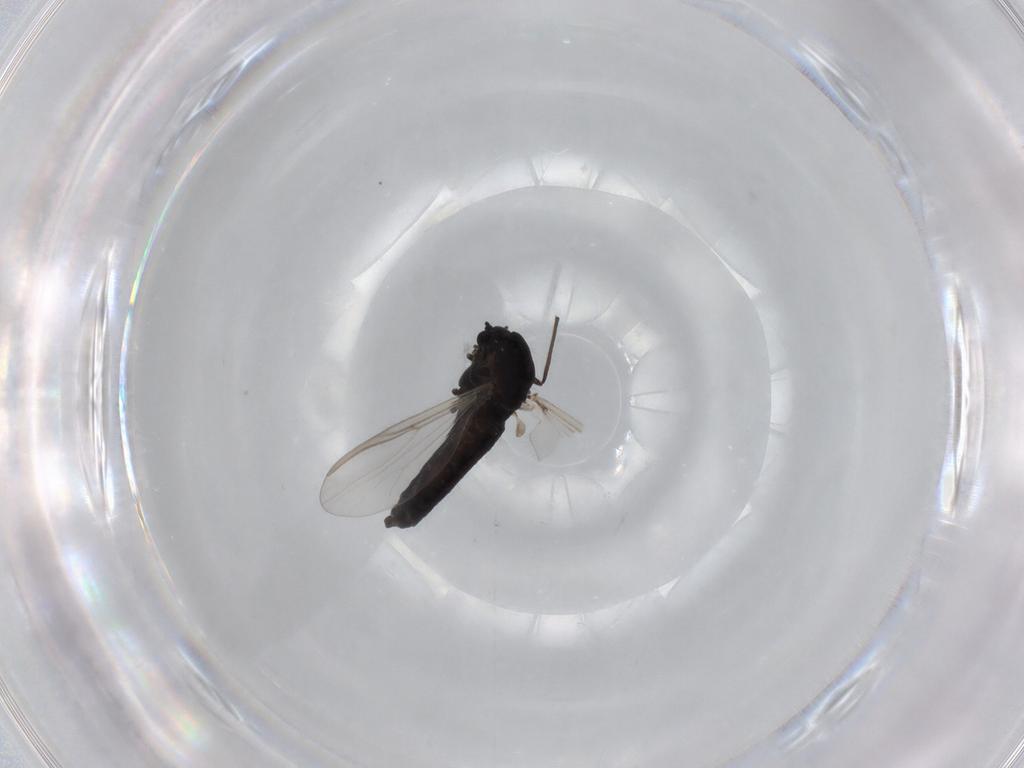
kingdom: Animalia
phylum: Arthropoda
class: Insecta
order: Diptera
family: Chironomidae
